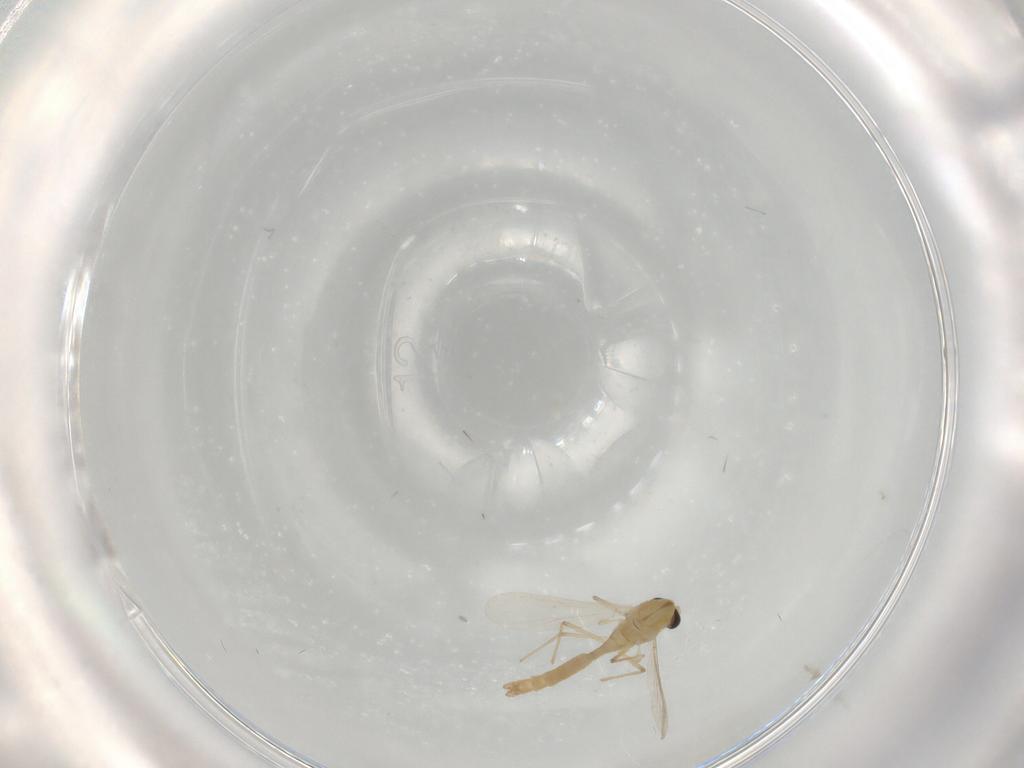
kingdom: Animalia
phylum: Arthropoda
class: Insecta
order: Diptera
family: Chironomidae
